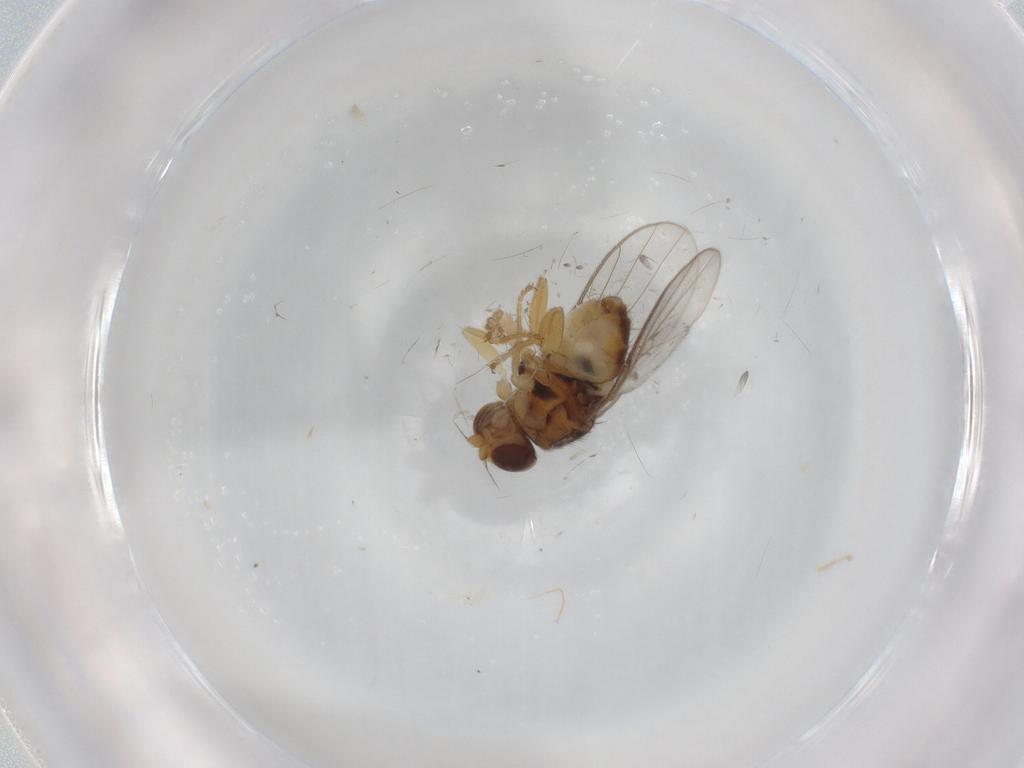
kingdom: Animalia
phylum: Arthropoda
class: Insecta
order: Diptera
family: Chloropidae
